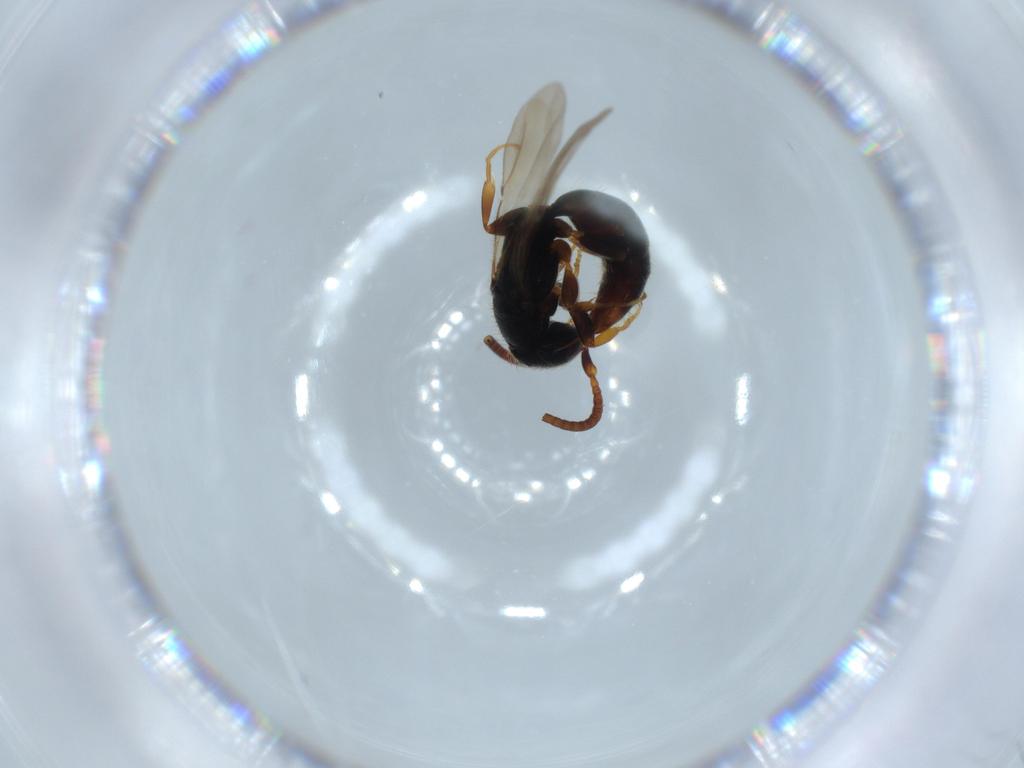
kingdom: Animalia
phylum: Arthropoda
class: Insecta
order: Hymenoptera
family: Bethylidae
